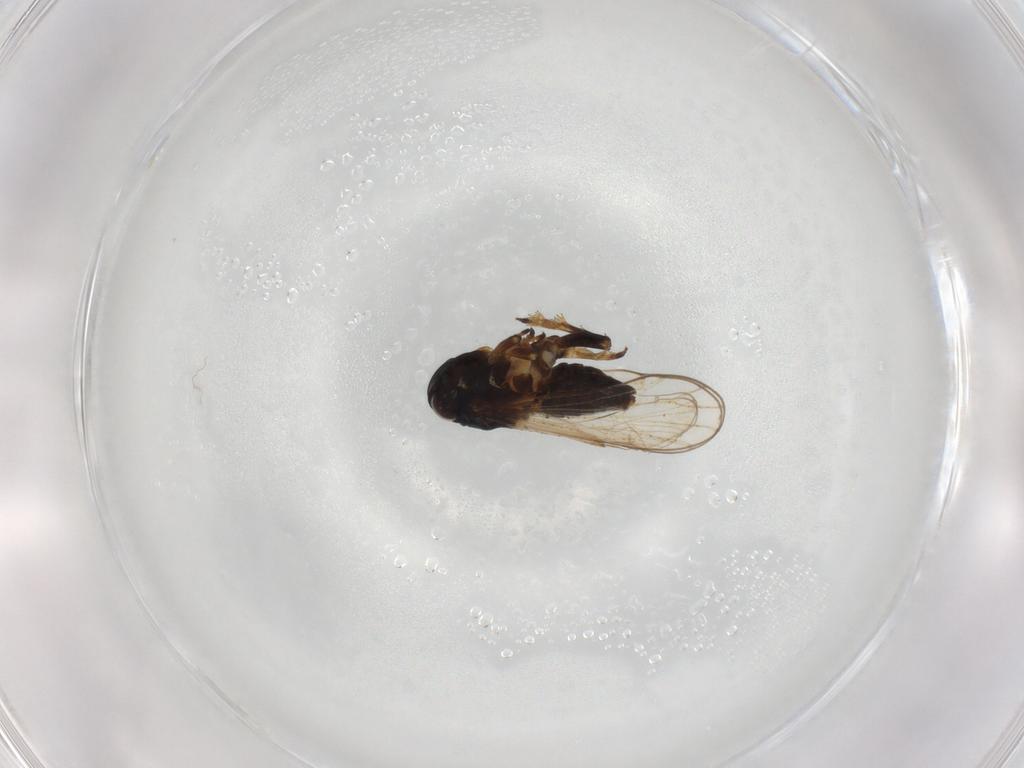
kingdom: Animalia
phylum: Arthropoda
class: Insecta
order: Hemiptera
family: Delphacidae
